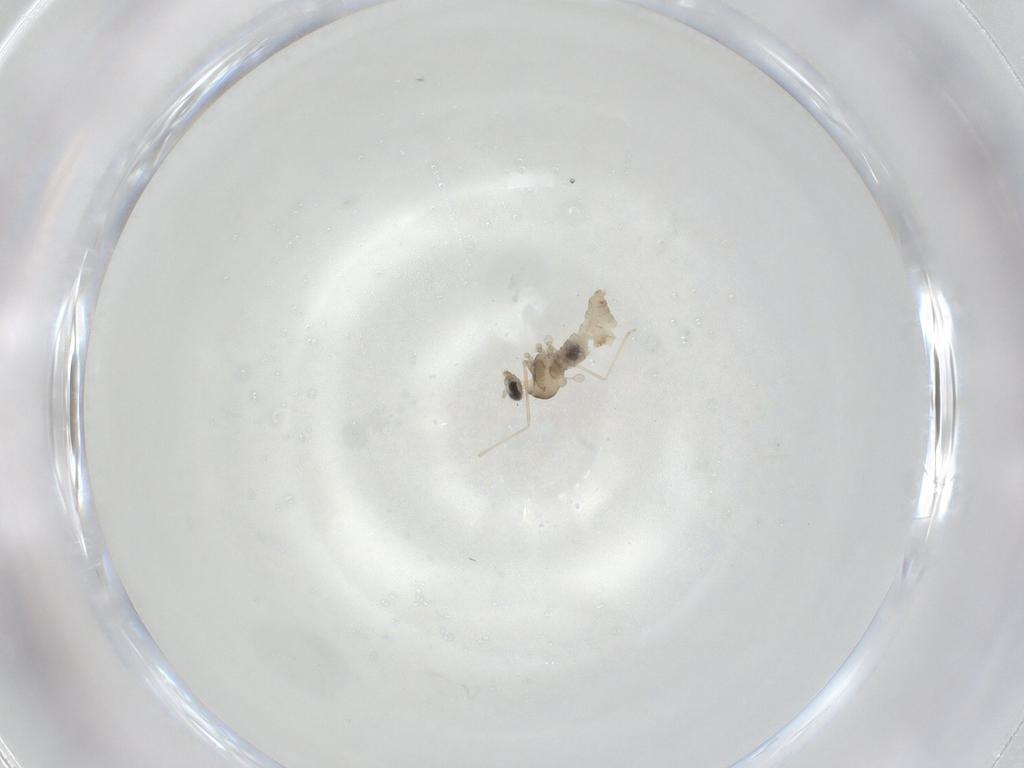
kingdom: Animalia
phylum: Arthropoda
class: Insecta
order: Diptera
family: Cecidomyiidae
